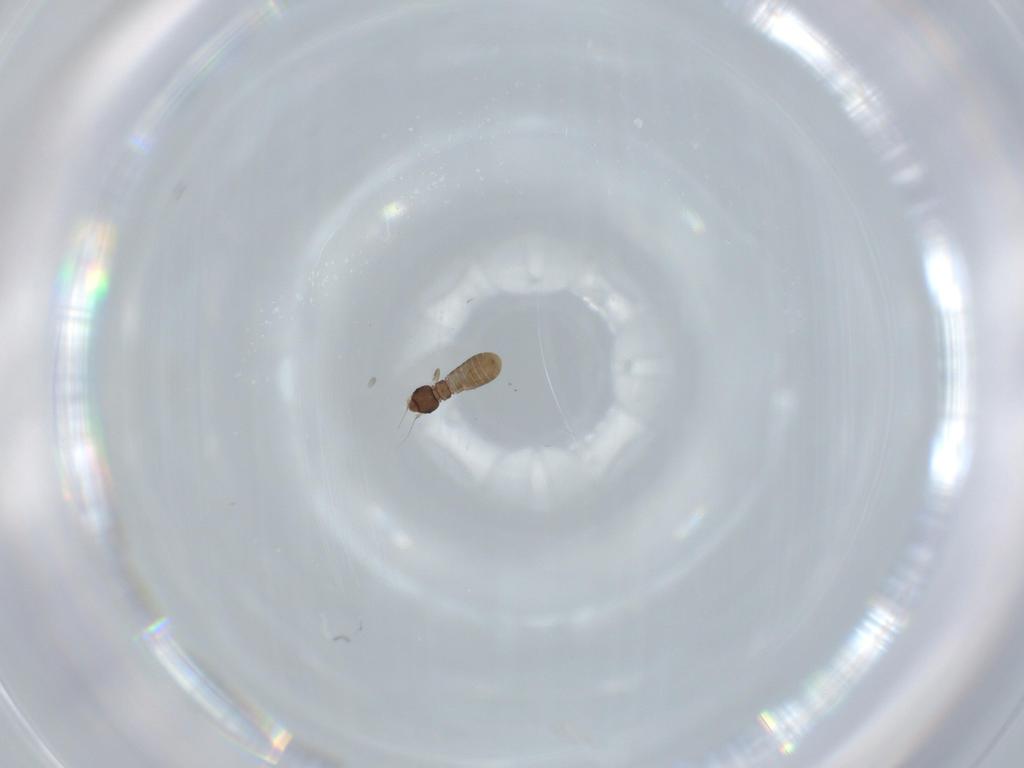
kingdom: Animalia
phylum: Arthropoda
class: Insecta
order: Psocodea
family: Liposcelididae
